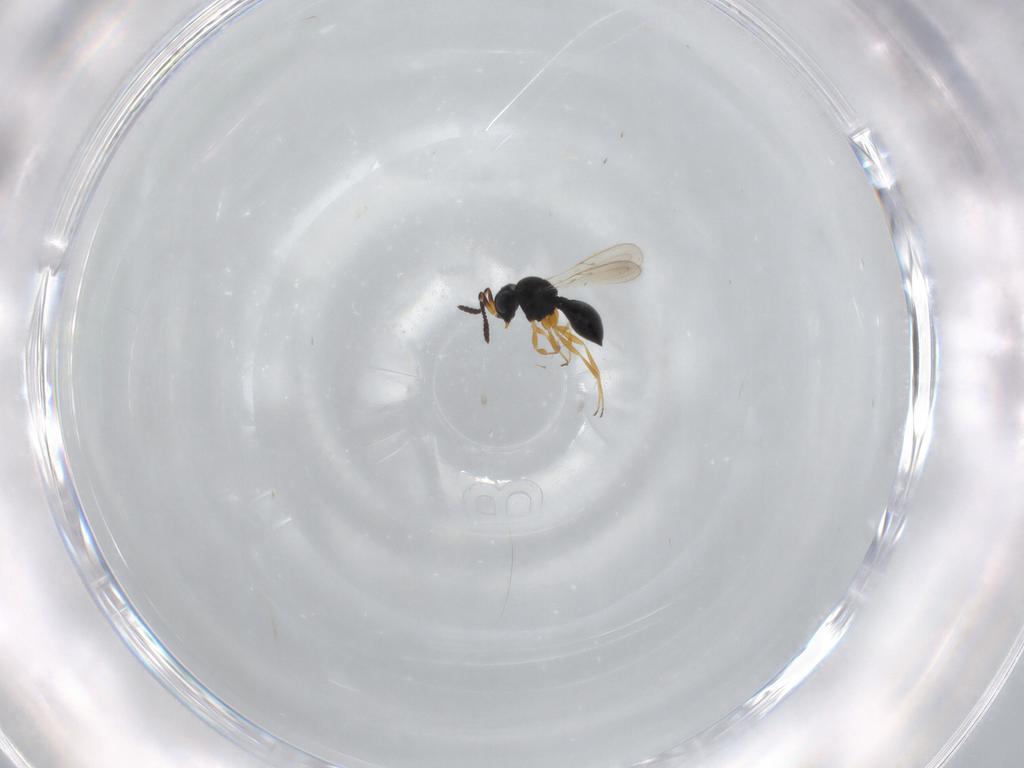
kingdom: Animalia
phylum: Arthropoda
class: Insecta
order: Hymenoptera
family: Scelionidae
